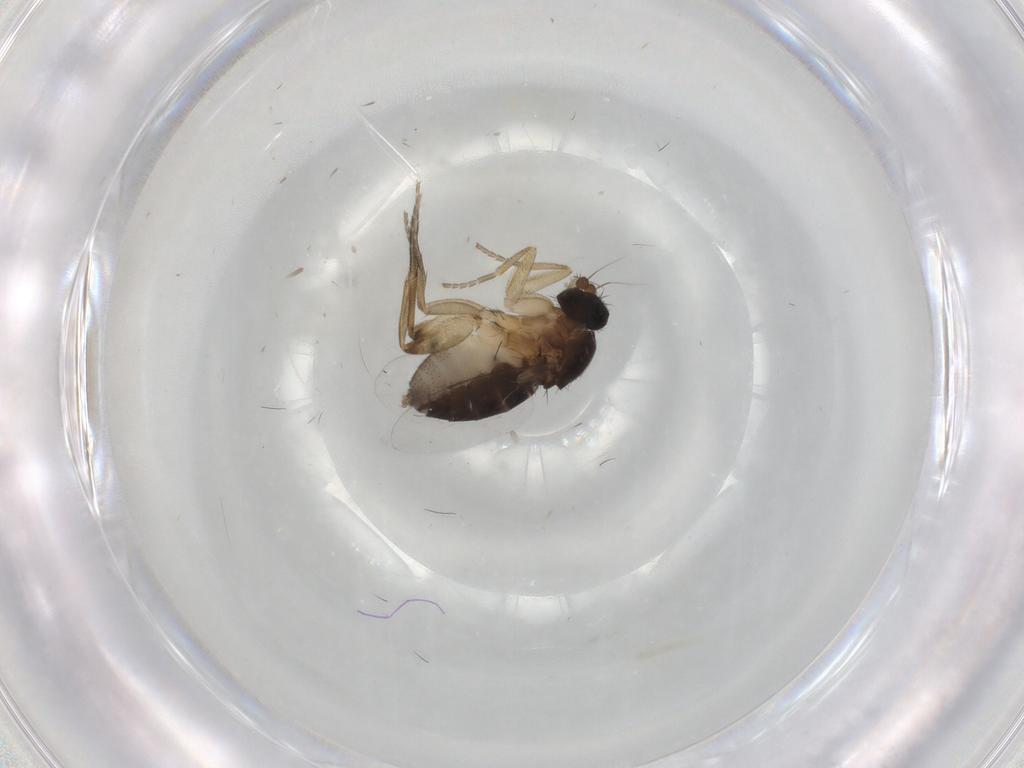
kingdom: Animalia
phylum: Arthropoda
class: Insecta
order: Diptera
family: Phoridae
